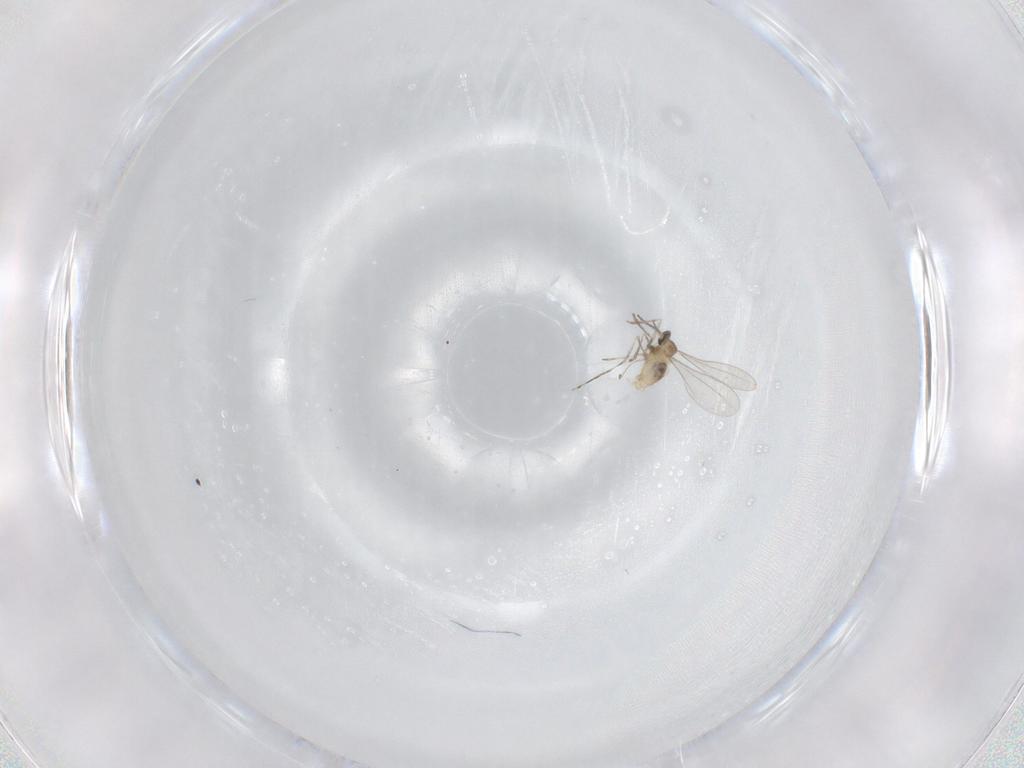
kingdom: Animalia
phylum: Arthropoda
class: Insecta
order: Diptera
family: Cecidomyiidae
